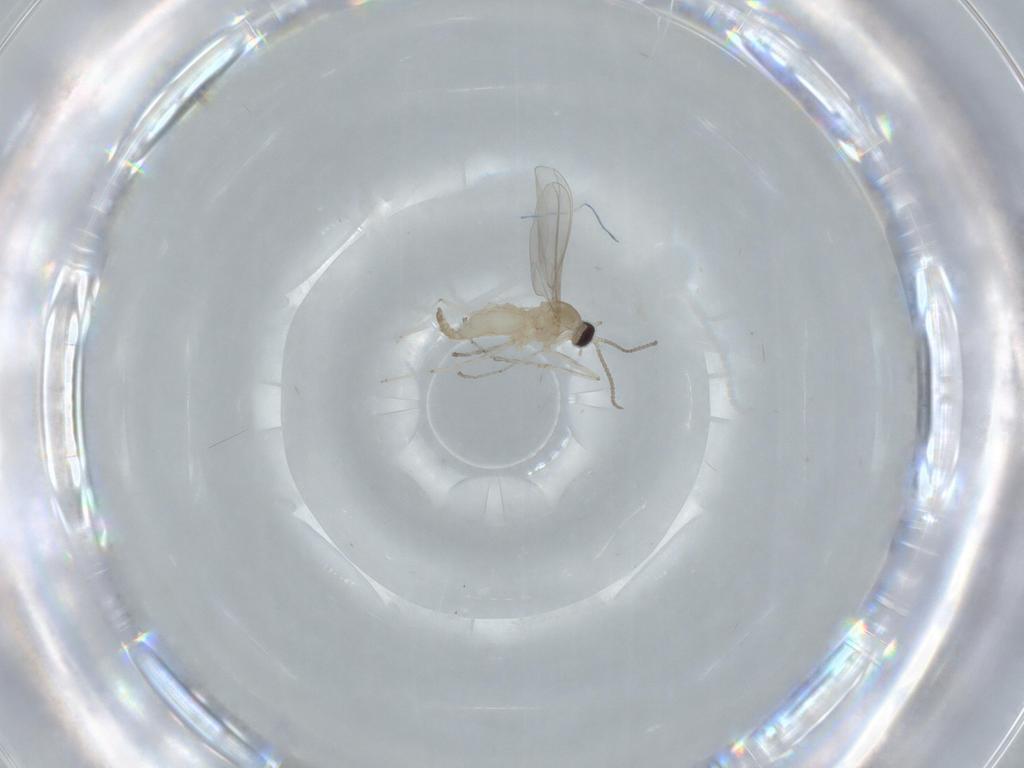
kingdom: Animalia
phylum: Arthropoda
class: Insecta
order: Diptera
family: Cecidomyiidae
